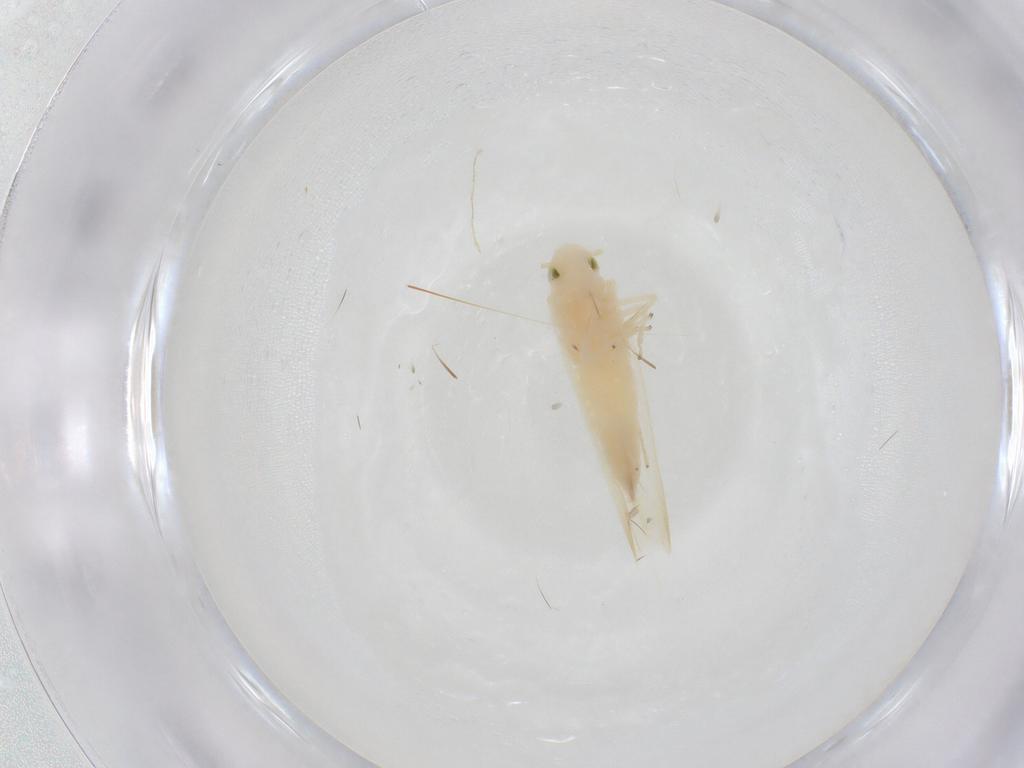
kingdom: Animalia
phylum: Arthropoda
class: Insecta
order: Hemiptera
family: Cicadellidae
